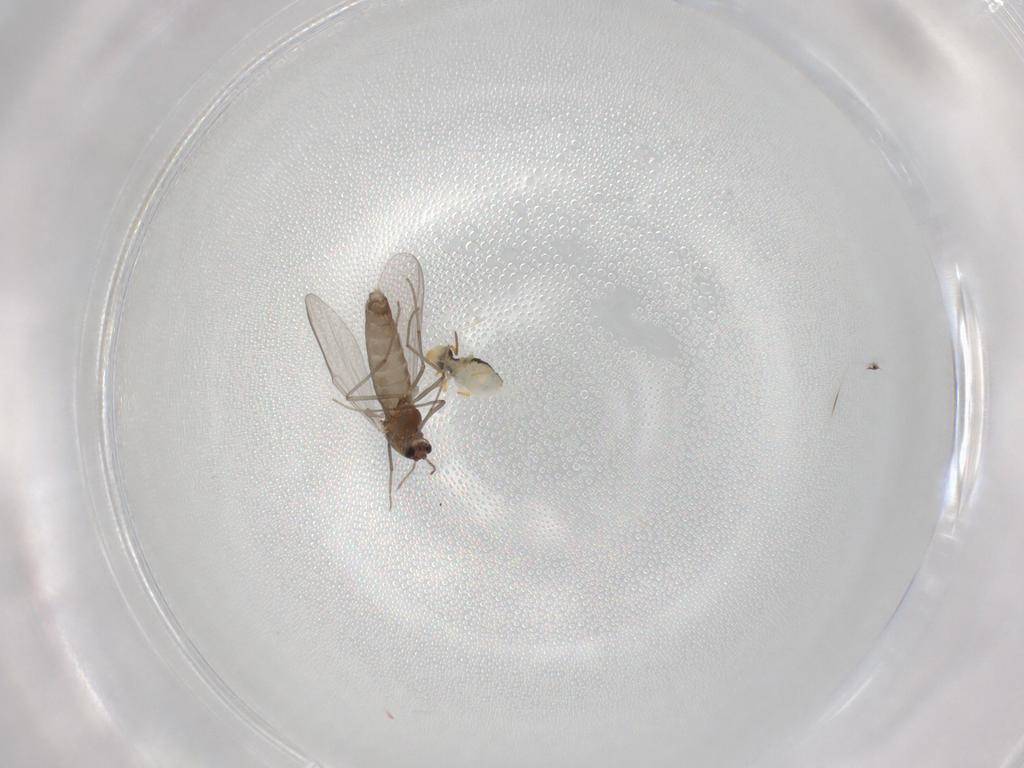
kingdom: Animalia
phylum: Arthropoda
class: Insecta
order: Diptera
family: Chironomidae
